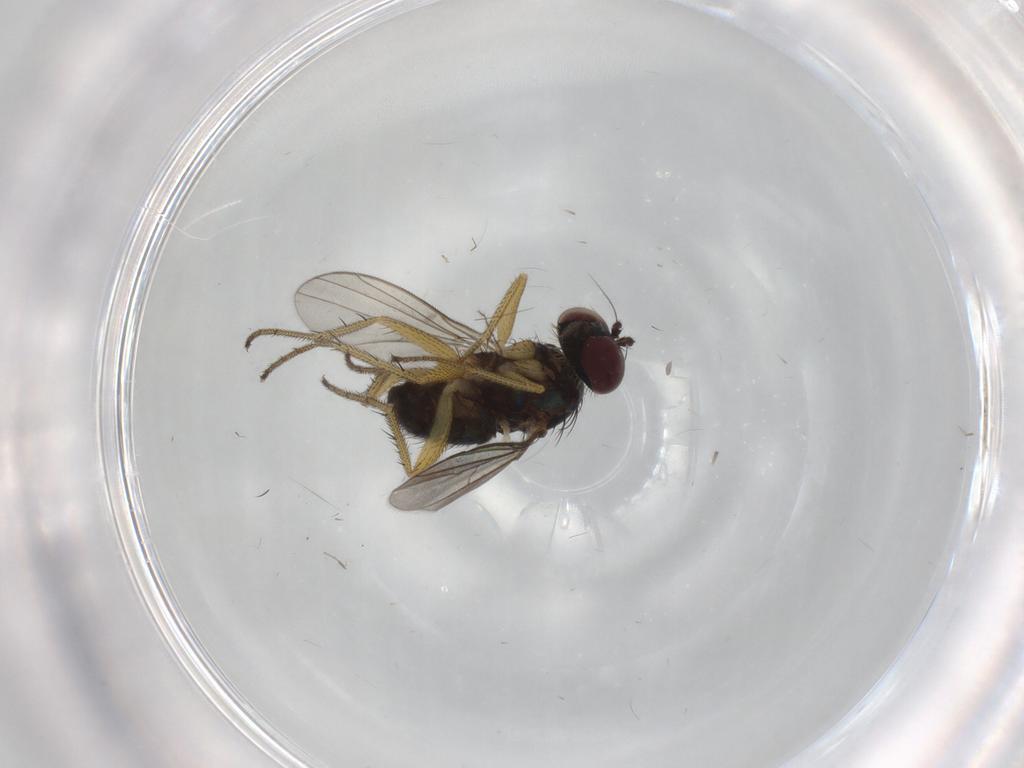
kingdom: Animalia
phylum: Arthropoda
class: Insecta
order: Diptera
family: Dolichopodidae
